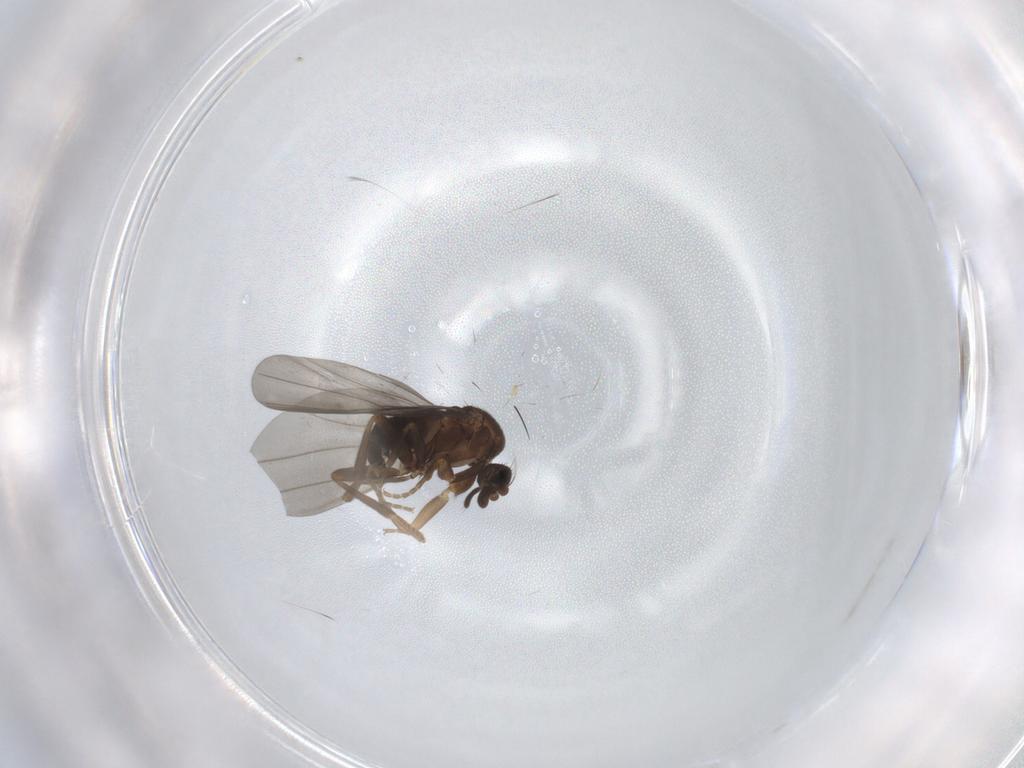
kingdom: Animalia
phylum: Arthropoda
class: Insecta
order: Diptera
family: Phoridae
